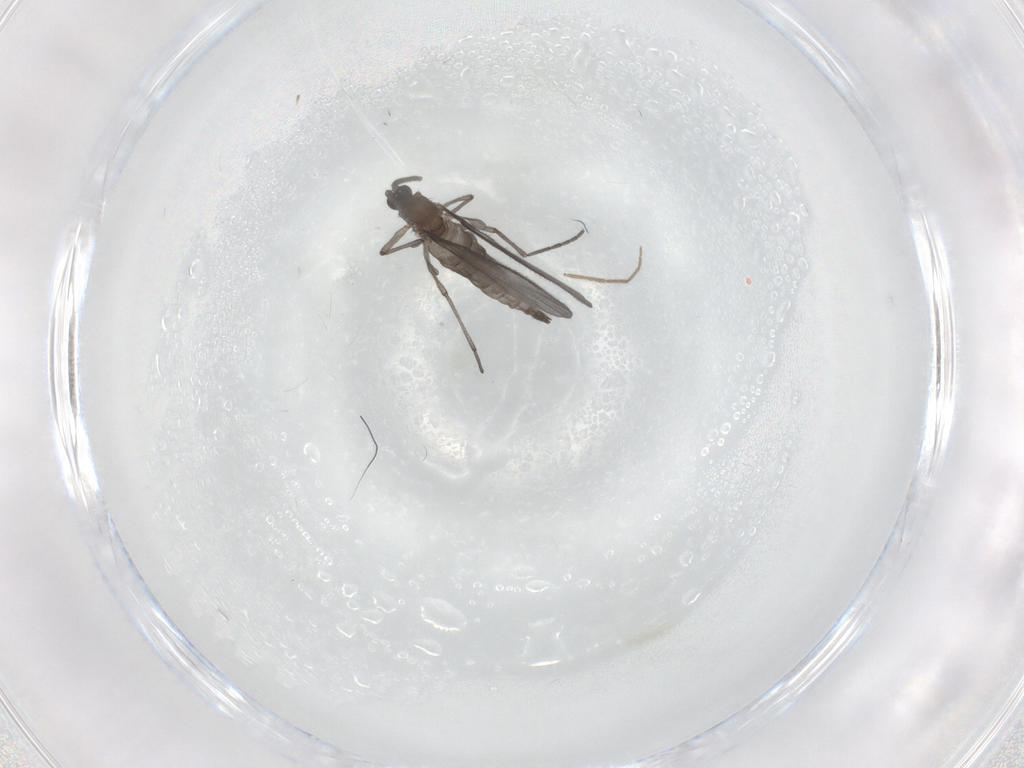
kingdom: Animalia
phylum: Arthropoda
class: Insecta
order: Diptera
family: Sciaridae
